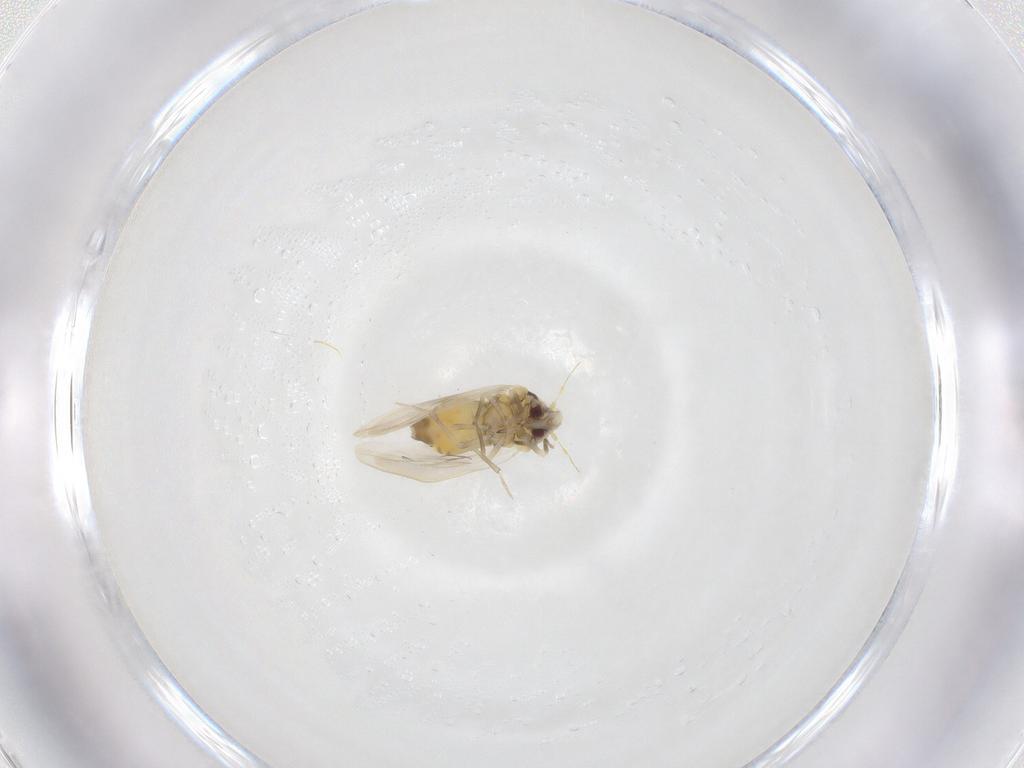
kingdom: Animalia
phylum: Arthropoda
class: Insecta
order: Hemiptera
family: Aleyrodidae
